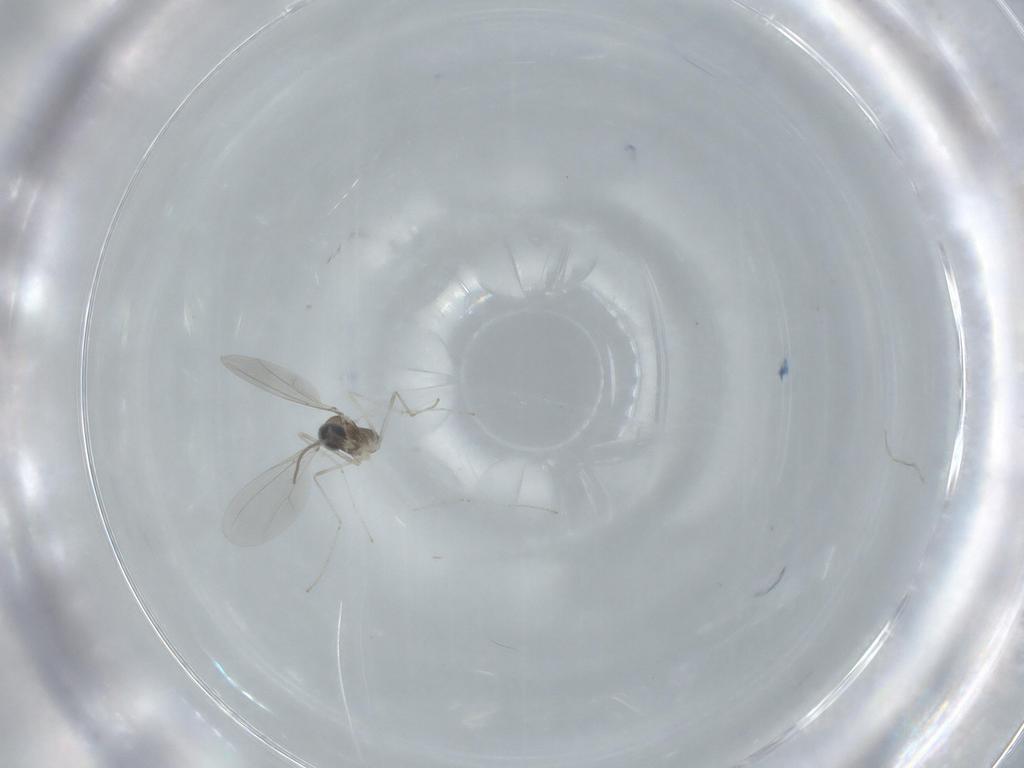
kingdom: Animalia
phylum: Arthropoda
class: Insecta
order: Diptera
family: Cecidomyiidae
